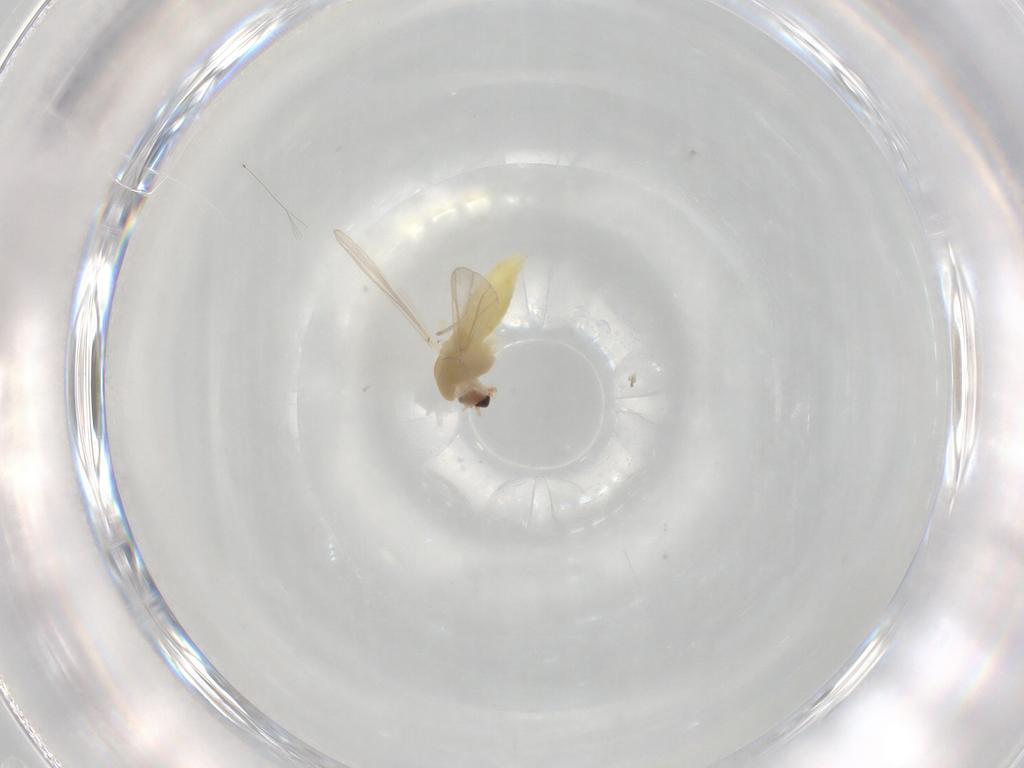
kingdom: Animalia
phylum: Arthropoda
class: Insecta
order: Diptera
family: Chironomidae
